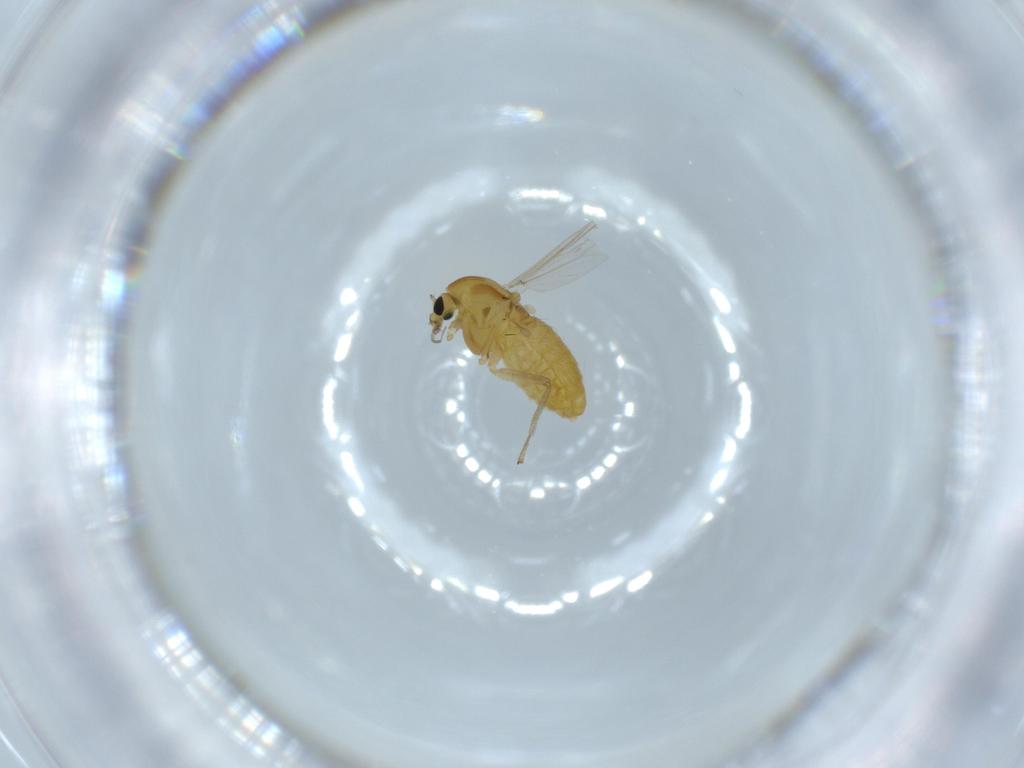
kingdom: Animalia
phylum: Arthropoda
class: Insecta
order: Diptera
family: Chironomidae
